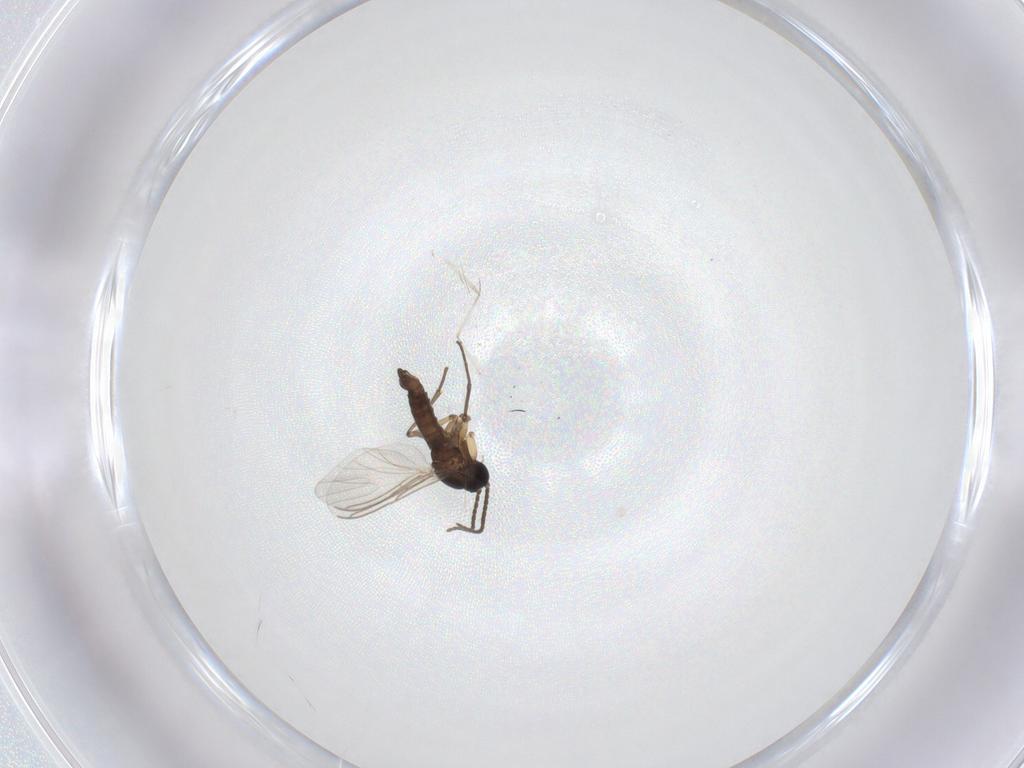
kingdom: Animalia
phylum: Arthropoda
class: Insecta
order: Diptera
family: Sciaridae
